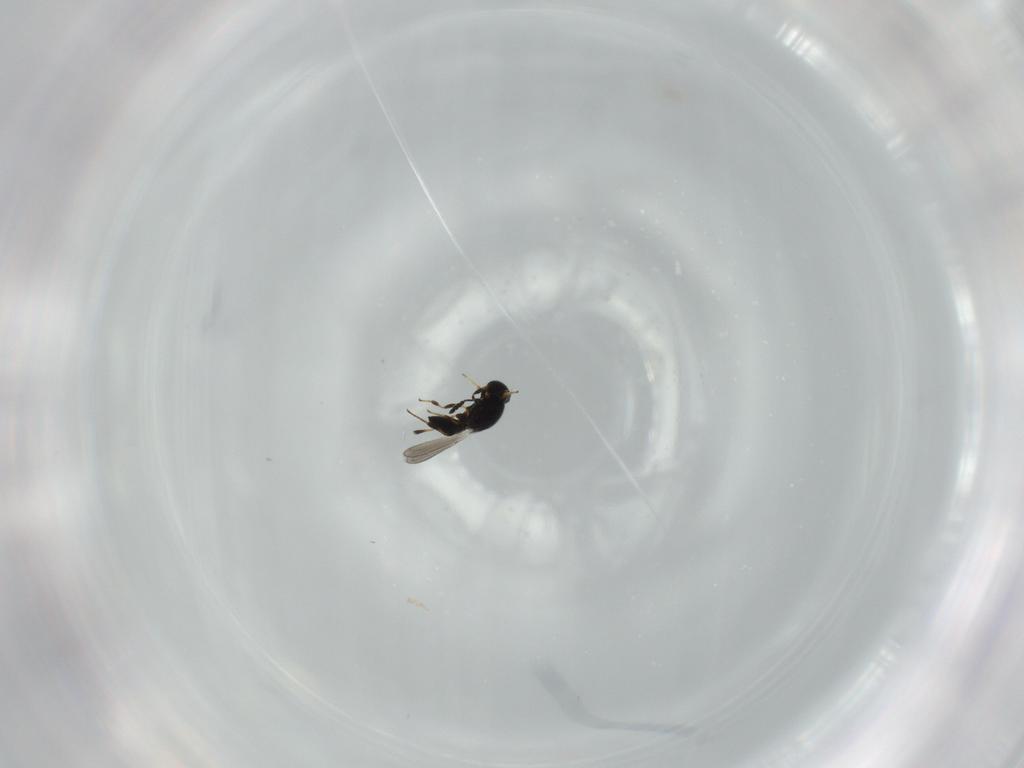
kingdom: Animalia
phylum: Arthropoda
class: Insecta
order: Hymenoptera
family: Platygastridae
